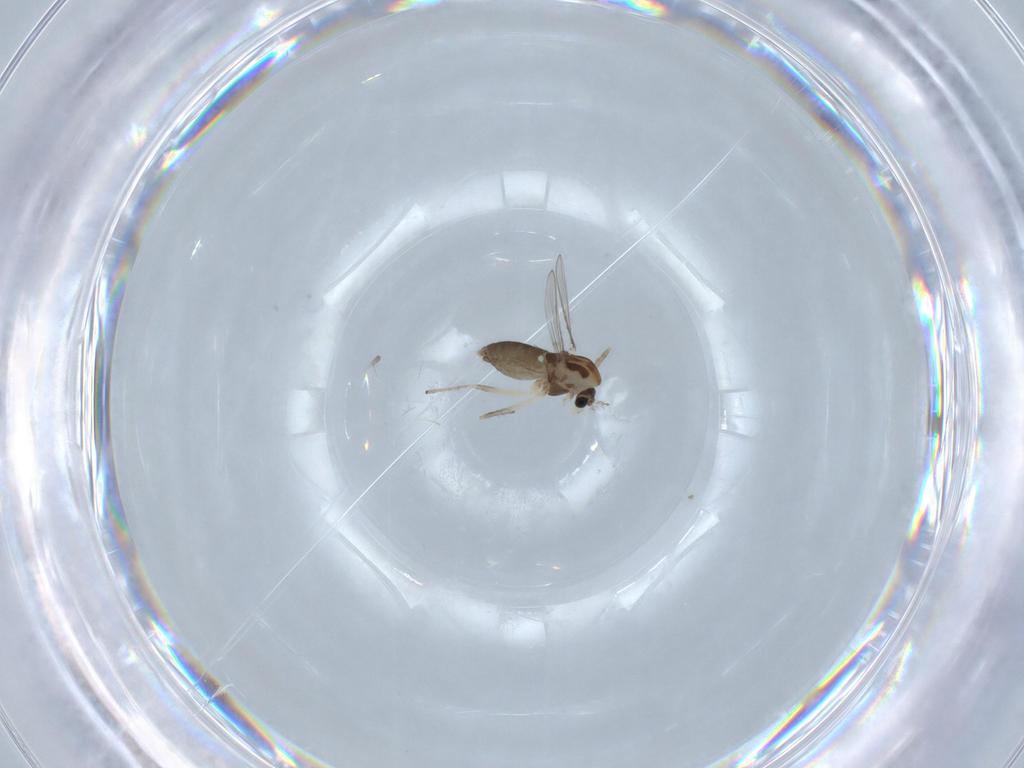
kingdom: Animalia
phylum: Arthropoda
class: Insecta
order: Diptera
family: Chironomidae
